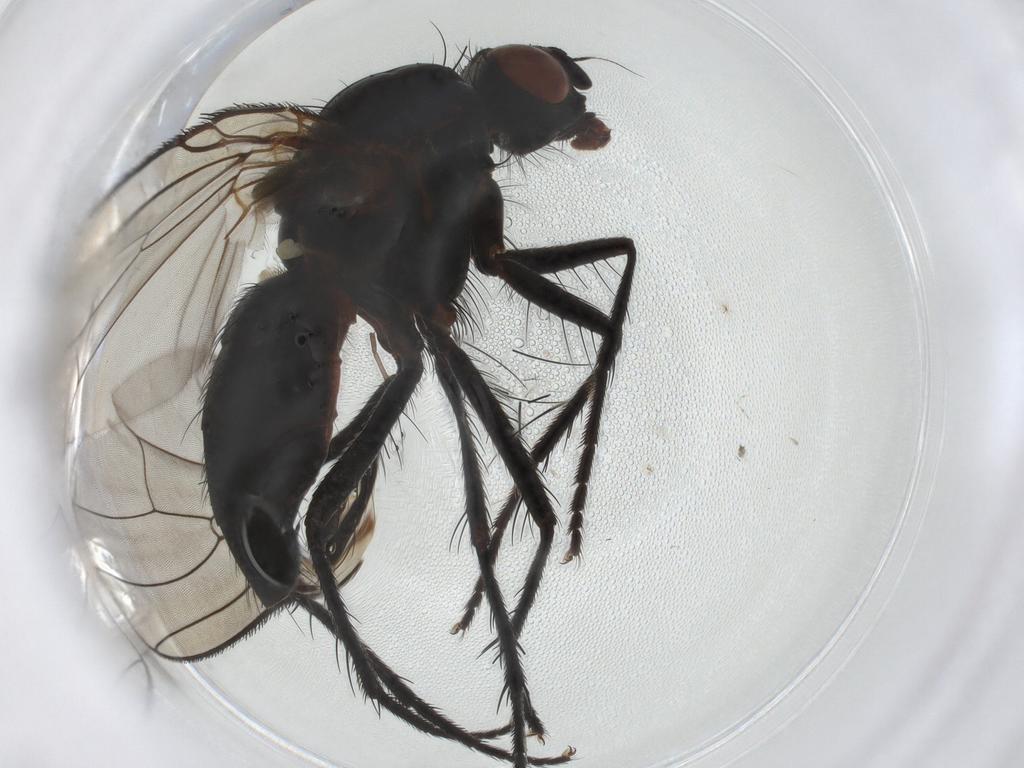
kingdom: Animalia
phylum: Arthropoda
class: Insecta
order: Diptera
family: Anthomyiidae
